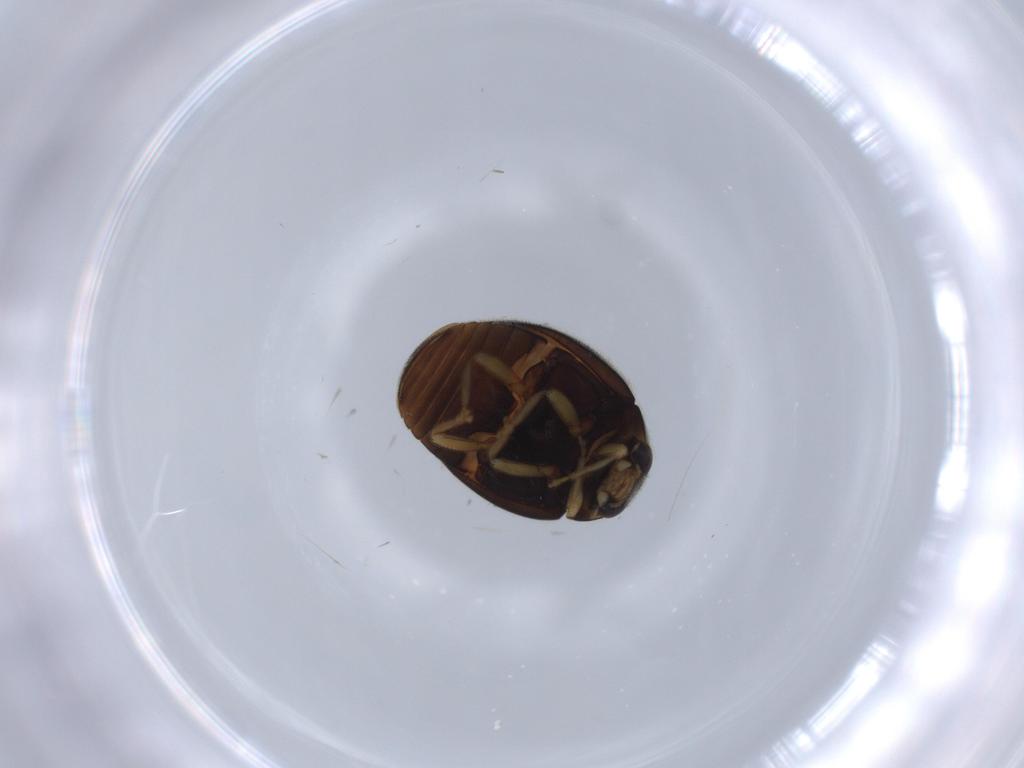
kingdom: Animalia
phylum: Arthropoda
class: Insecta
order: Coleoptera
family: Coccinellidae
